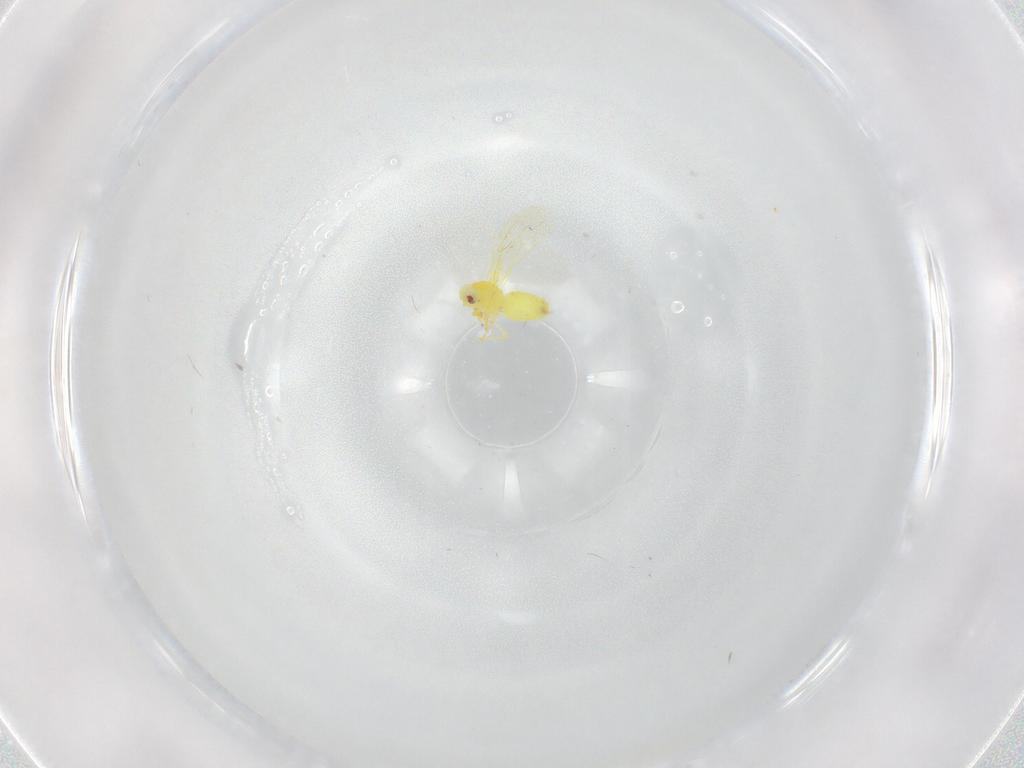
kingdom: Animalia
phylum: Arthropoda
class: Insecta
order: Hemiptera
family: Aleyrodidae
